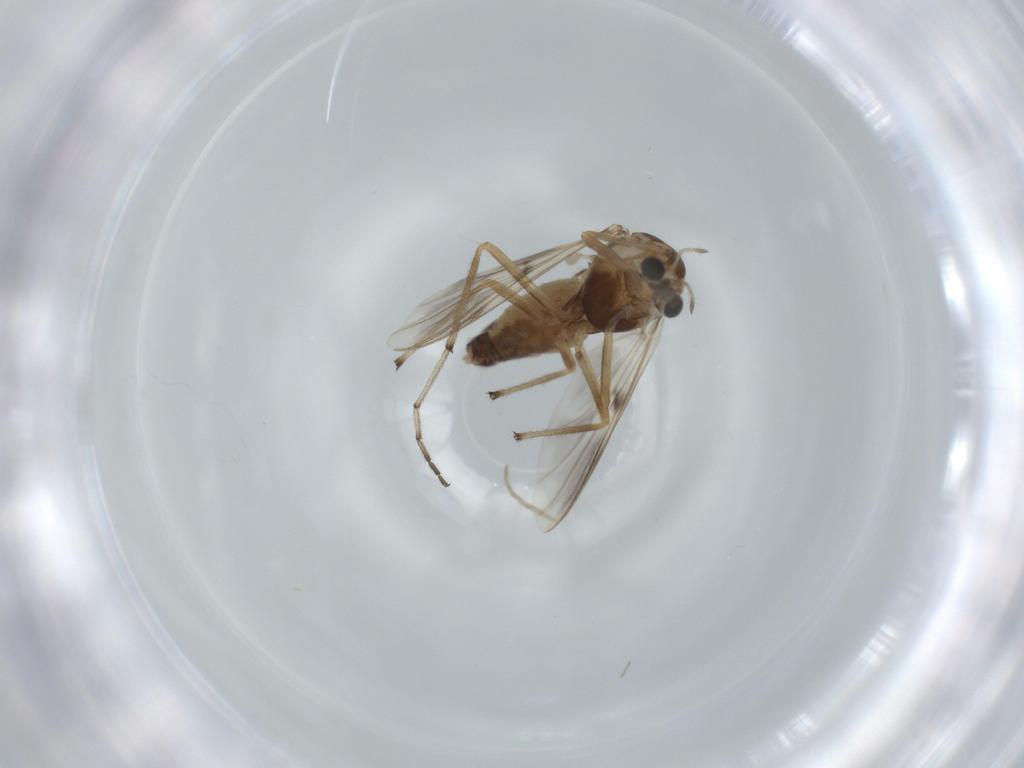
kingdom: Animalia
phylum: Arthropoda
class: Insecta
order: Diptera
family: Chironomidae
